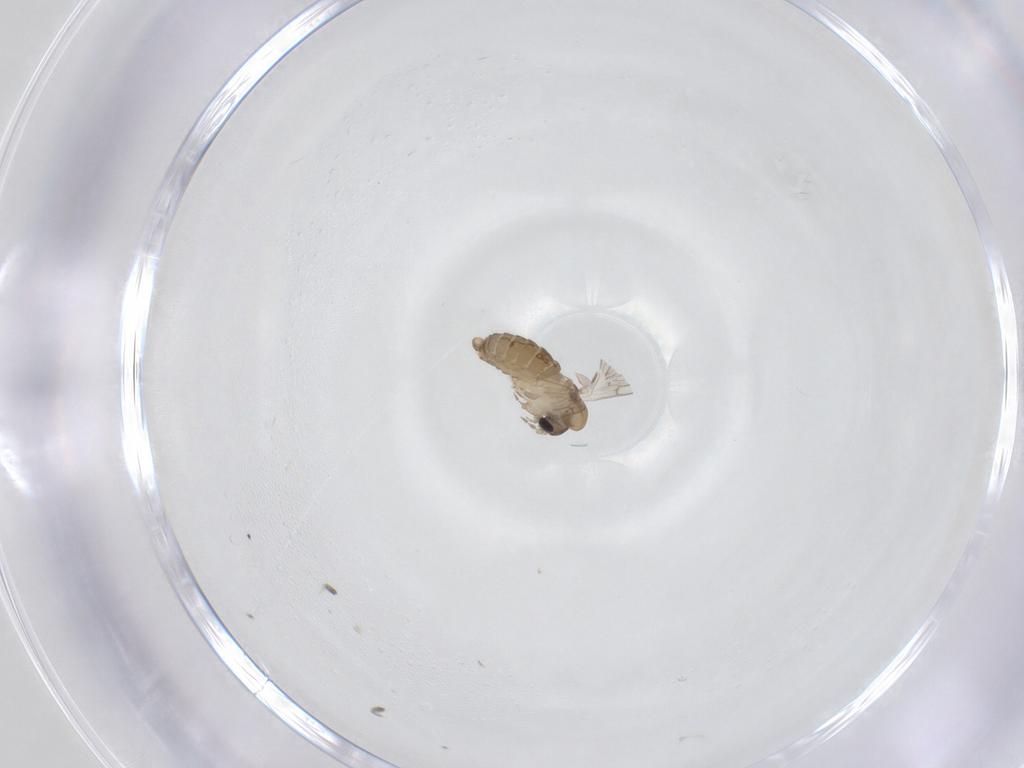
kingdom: Animalia
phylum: Arthropoda
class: Insecta
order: Diptera
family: Psychodidae
